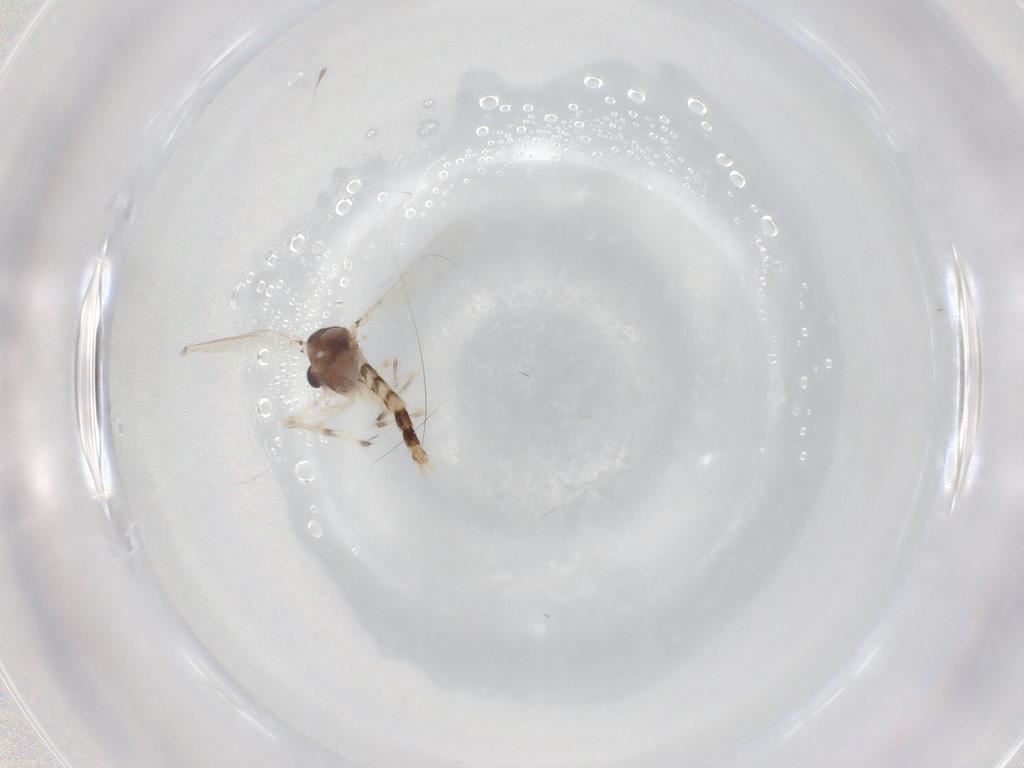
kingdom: Animalia
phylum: Arthropoda
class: Insecta
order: Diptera
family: Chironomidae
